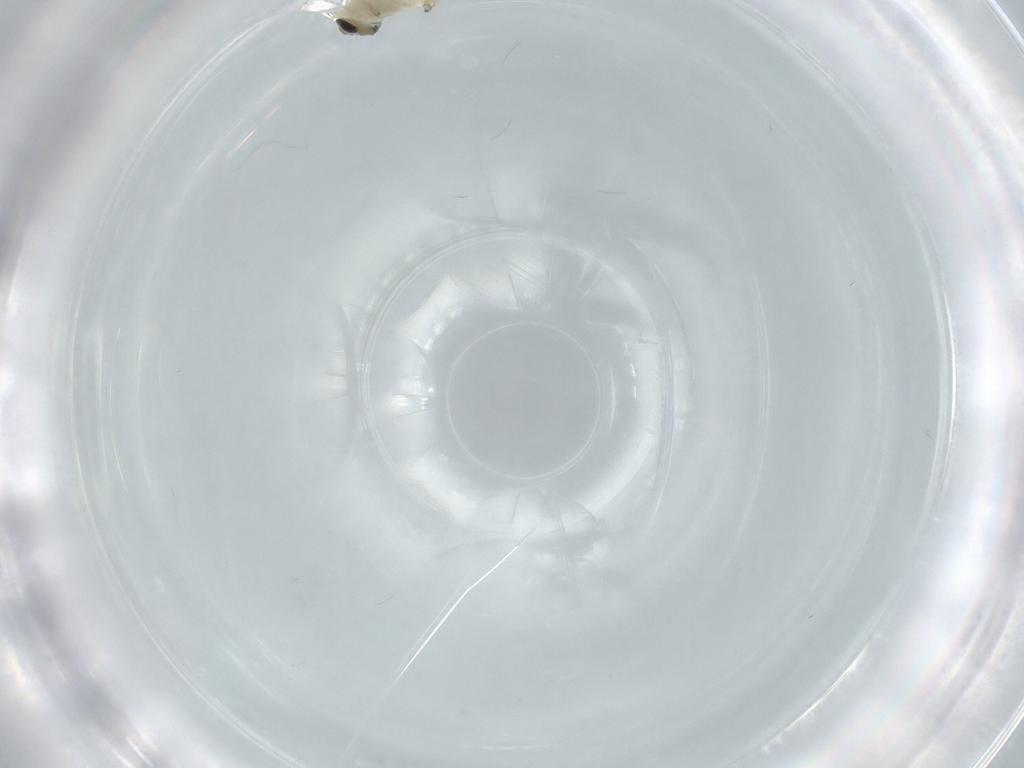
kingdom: Animalia
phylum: Arthropoda
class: Insecta
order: Diptera
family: Chironomidae
